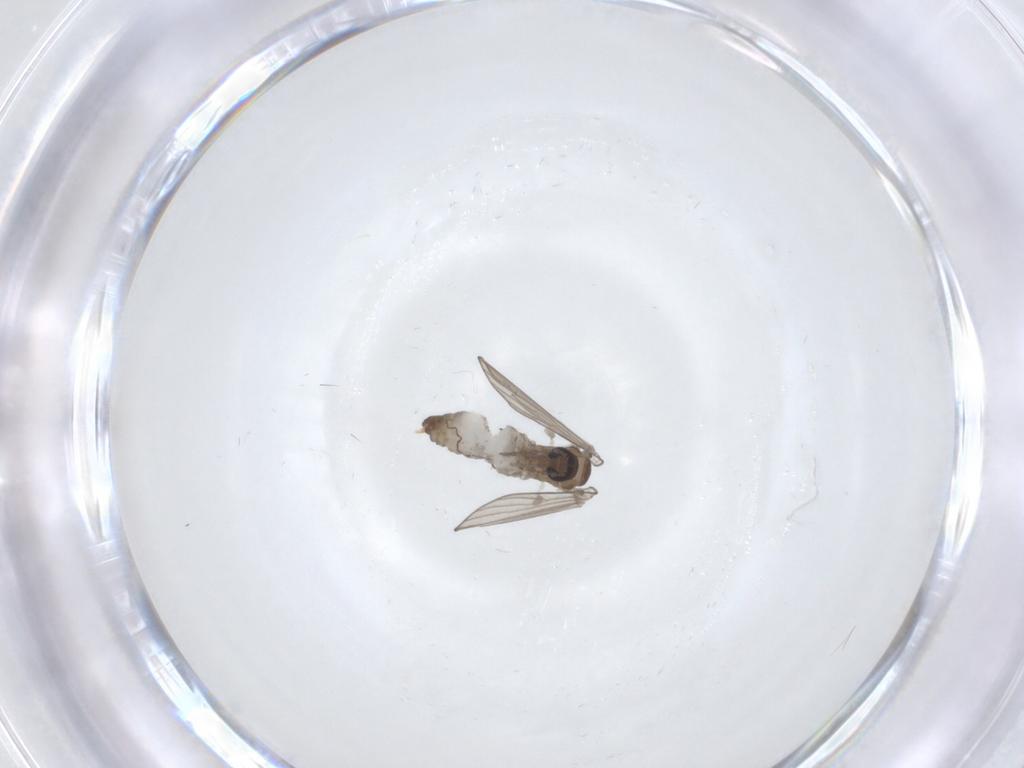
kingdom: Animalia
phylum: Arthropoda
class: Insecta
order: Diptera
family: Psychodidae
